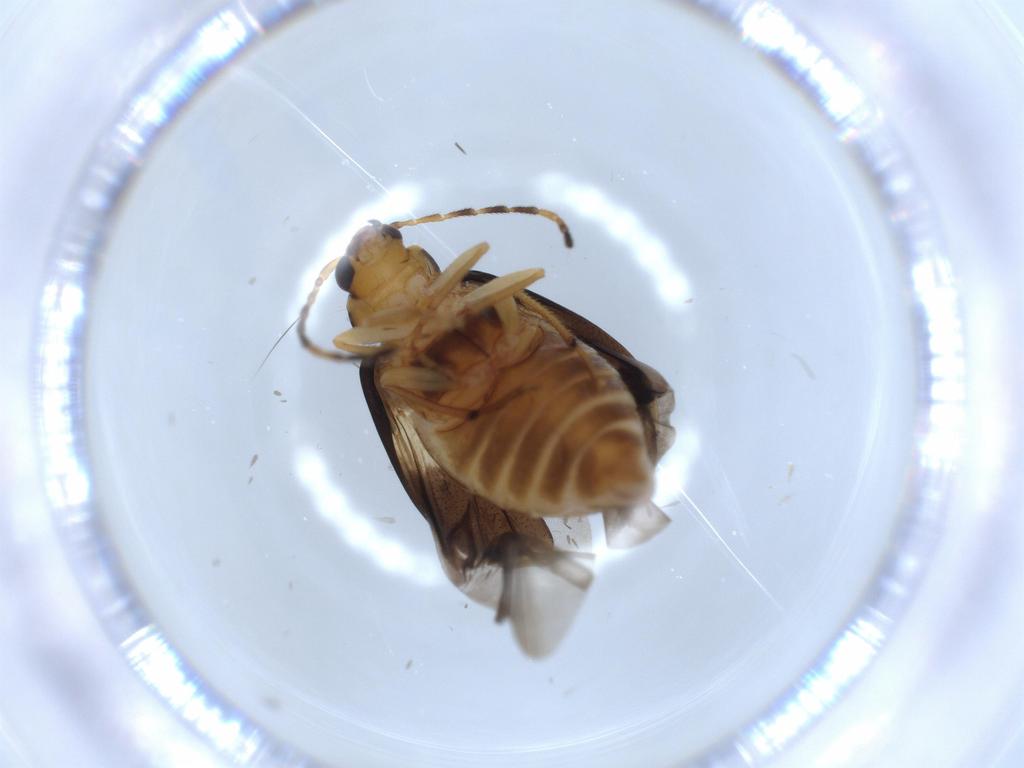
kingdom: Animalia
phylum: Arthropoda
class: Insecta
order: Coleoptera
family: Chrysomelidae
